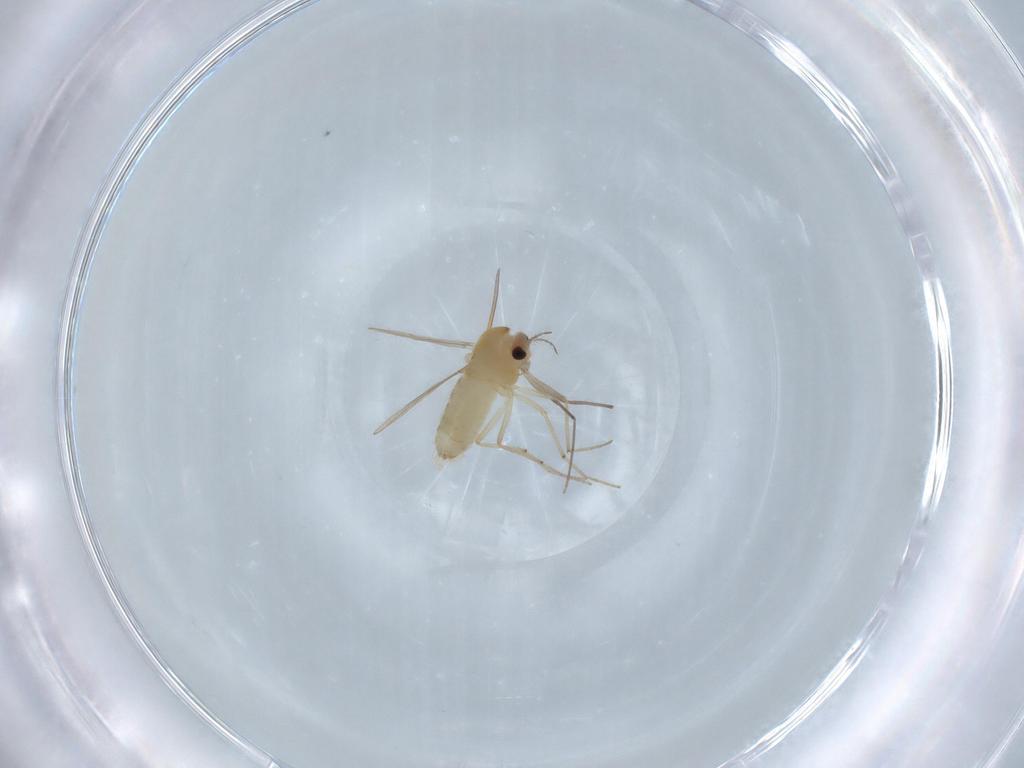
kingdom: Animalia
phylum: Arthropoda
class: Insecta
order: Diptera
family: Chironomidae
